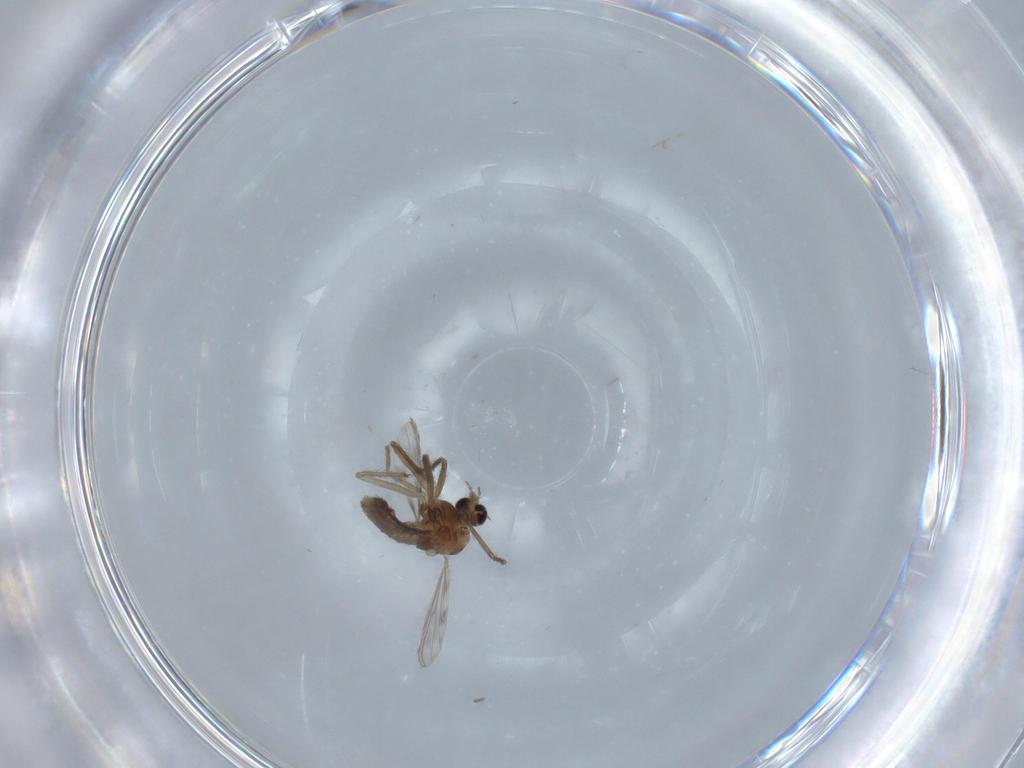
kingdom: Animalia
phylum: Arthropoda
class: Insecta
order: Diptera
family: Chironomidae
